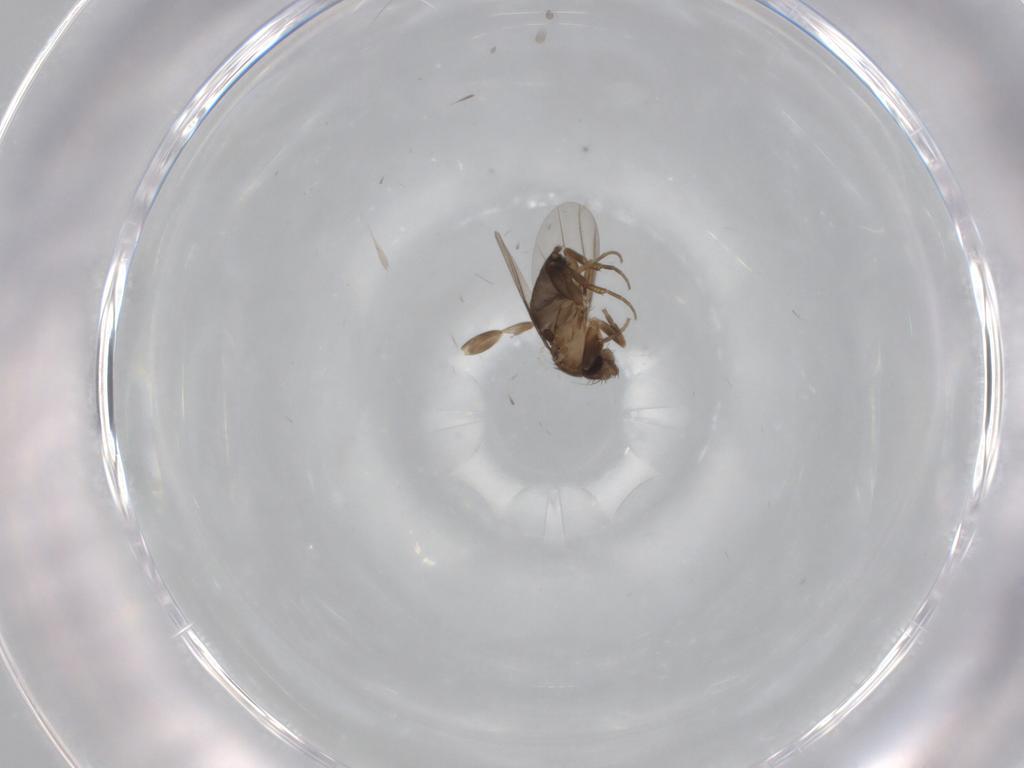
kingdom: Animalia
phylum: Arthropoda
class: Insecta
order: Diptera
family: Phoridae
